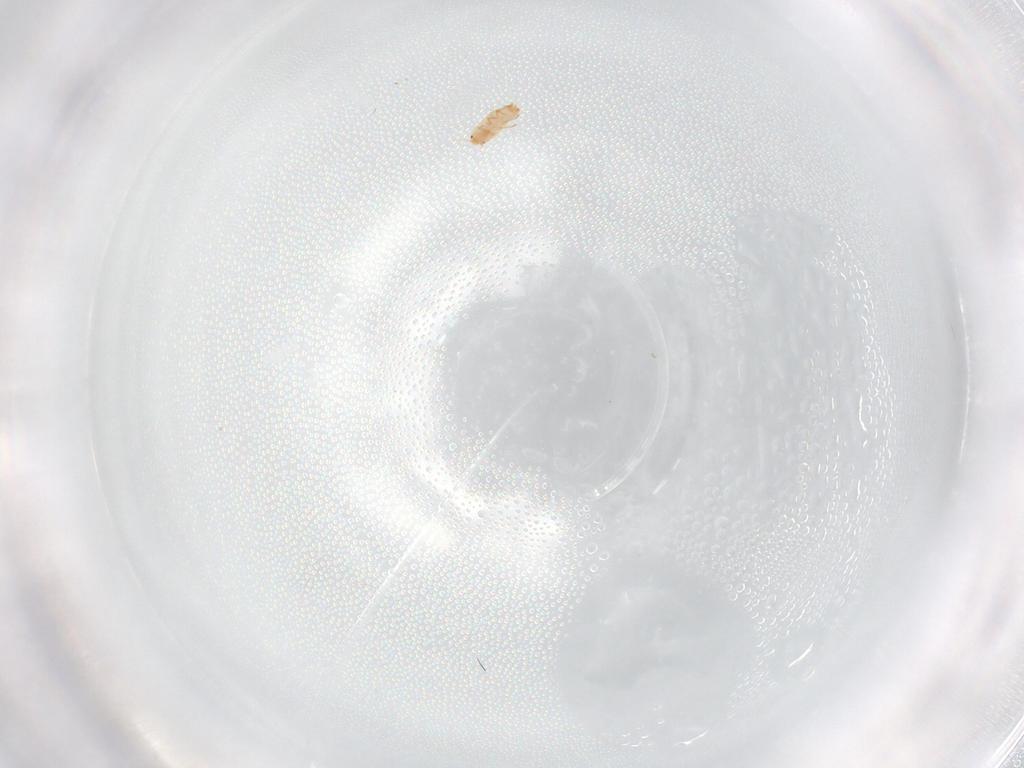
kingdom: Animalia
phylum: Arthropoda
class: Insecta
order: Hemiptera
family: Coccidae
